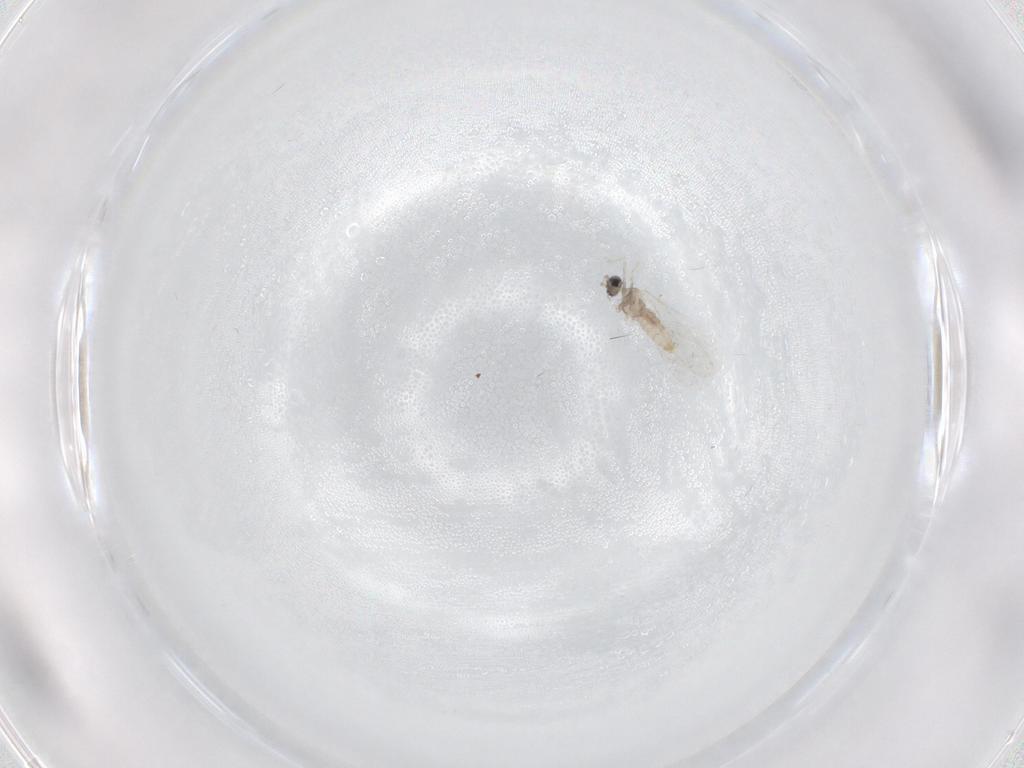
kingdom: Animalia
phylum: Arthropoda
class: Insecta
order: Diptera
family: Cecidomyiidae
